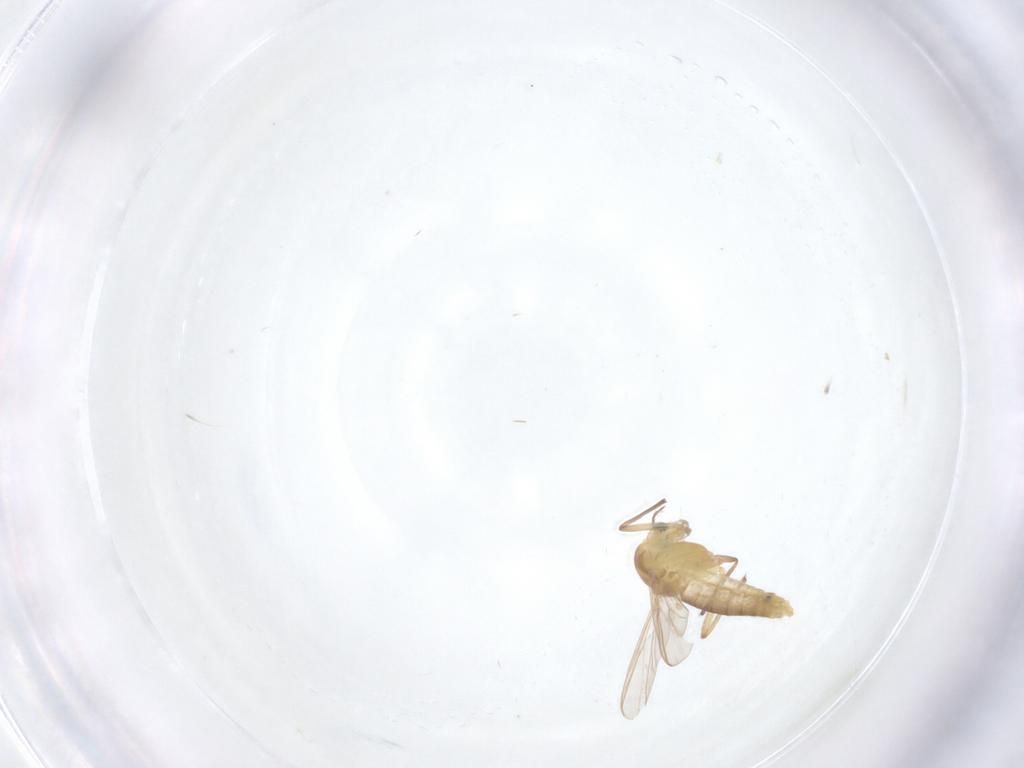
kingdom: Animalia
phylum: Arthropoda
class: Insecta
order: Diptera
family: Chironomidae
